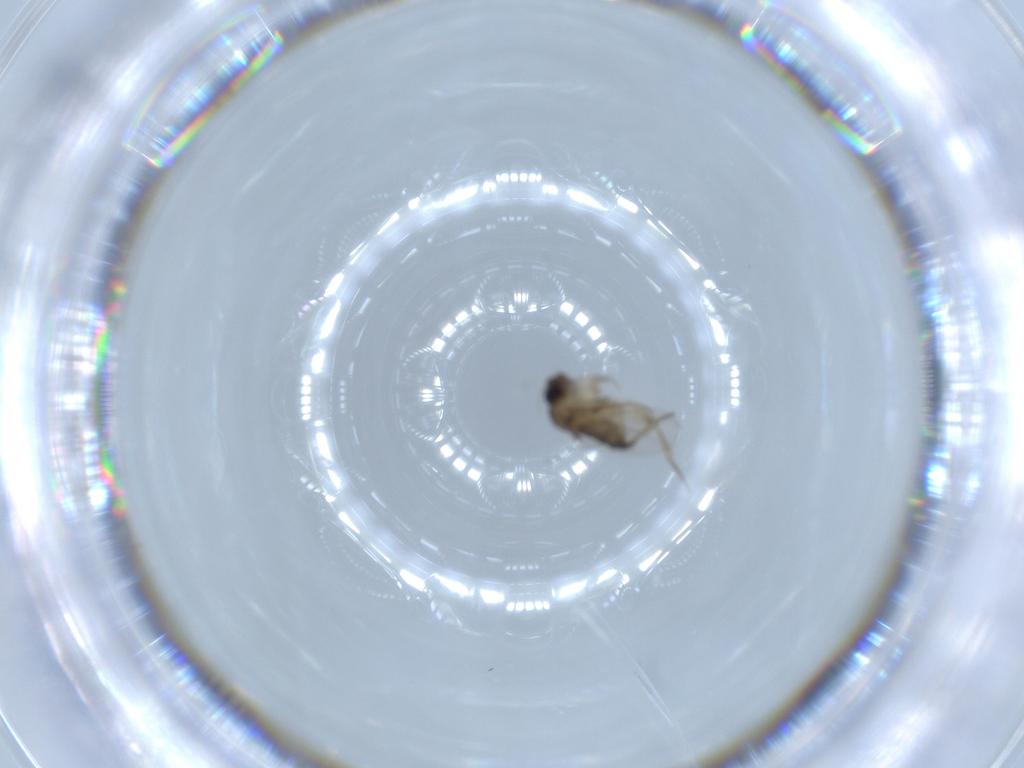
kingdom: Animalia
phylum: Arthropoda
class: Insecta
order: Diptera
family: Phoridae
